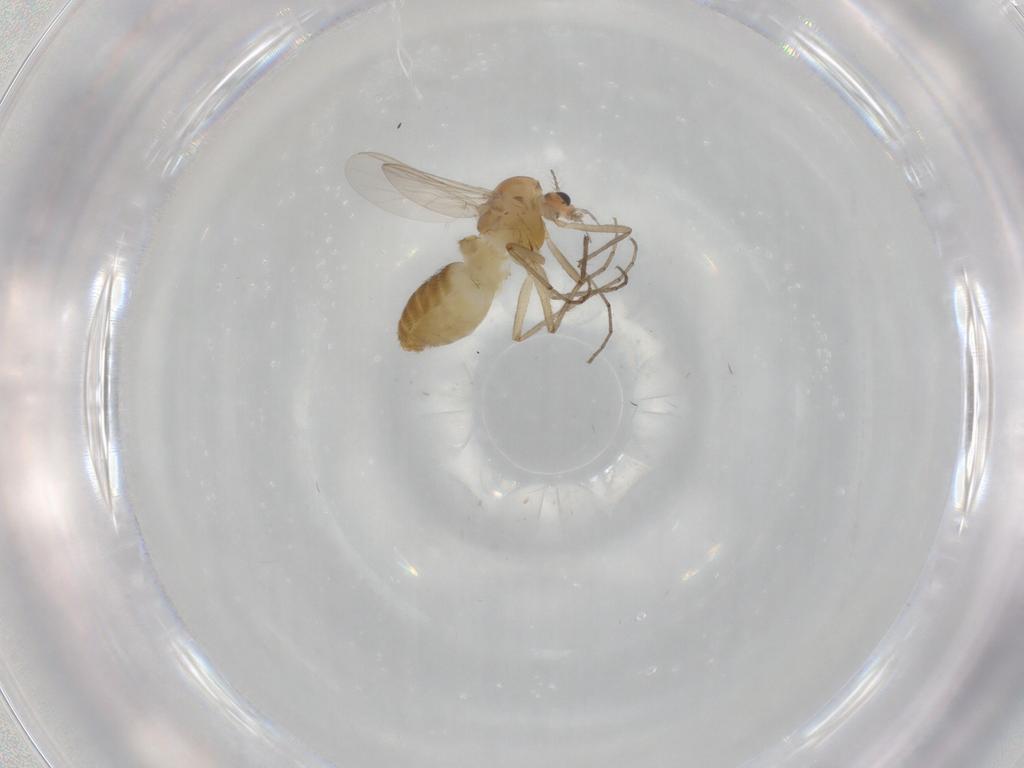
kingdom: Animalia
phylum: Arthropoda
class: Insecta
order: Diptera
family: Chironomidae
